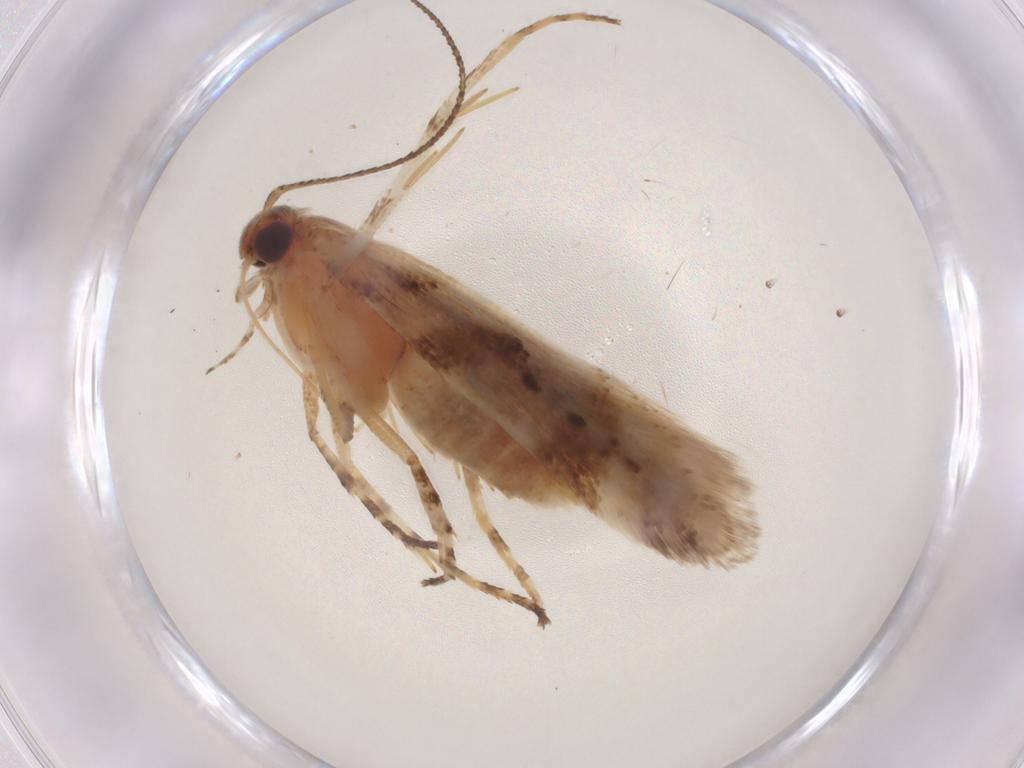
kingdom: Animalia
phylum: Arthropoda
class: Insecta
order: Lepidoptera
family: Gelechiidae
